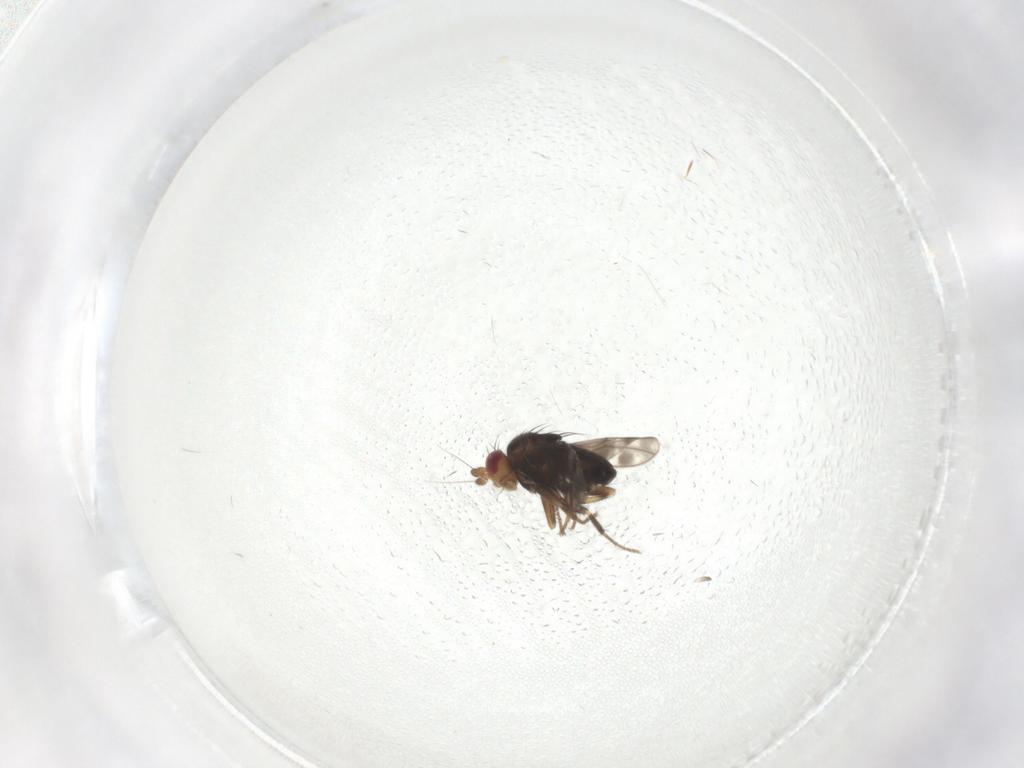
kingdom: Animalia
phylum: Arthropoda
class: Insecta
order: Diptera
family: Sphaeroceridae
